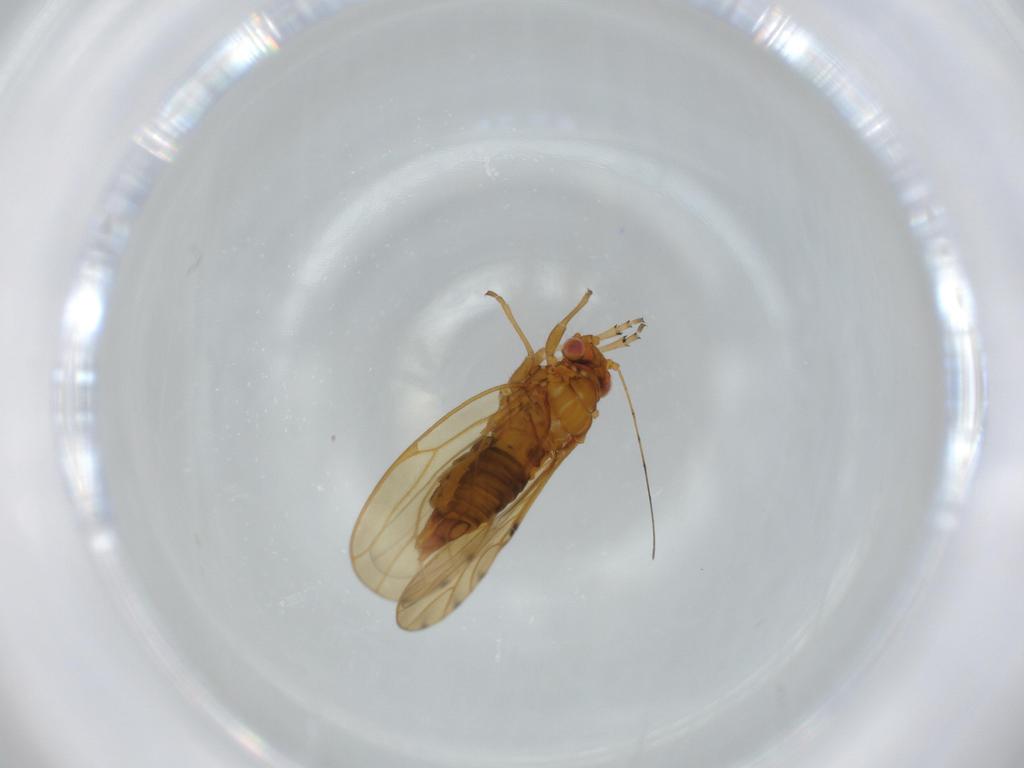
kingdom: Animalia
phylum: Arthropoda
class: Insecta
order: Hemiptera
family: Psylloidea_incertae_sedis
